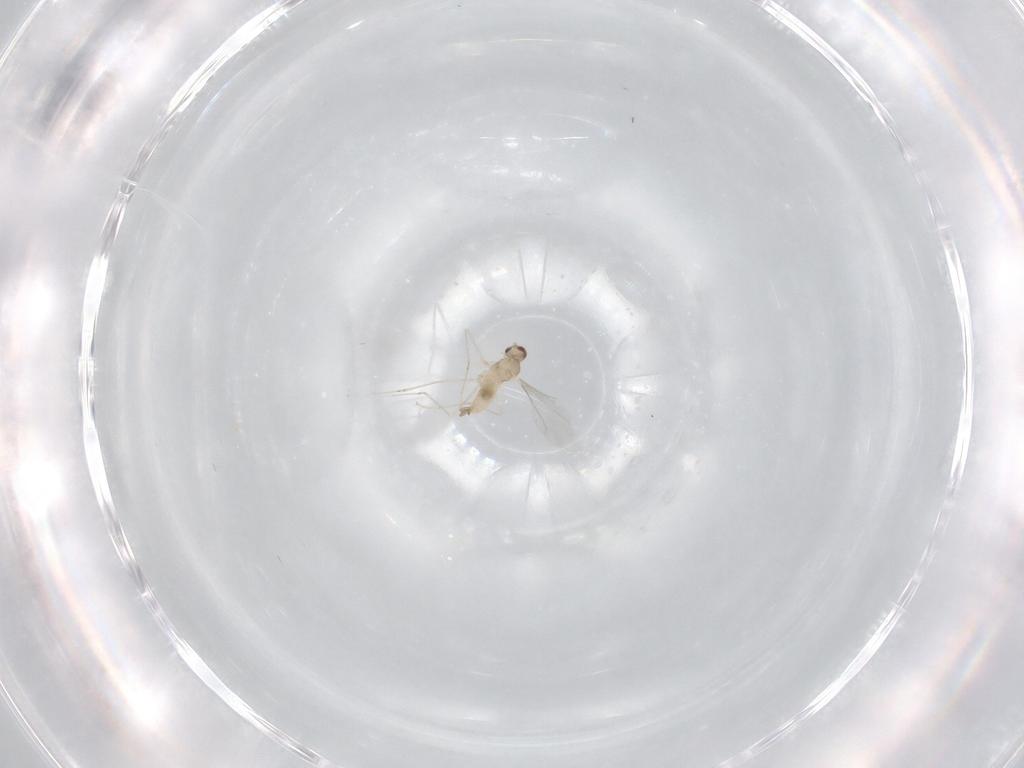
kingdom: Animalia
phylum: Arthropoda
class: Insecta
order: Diptera
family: Cecidomyiidae
